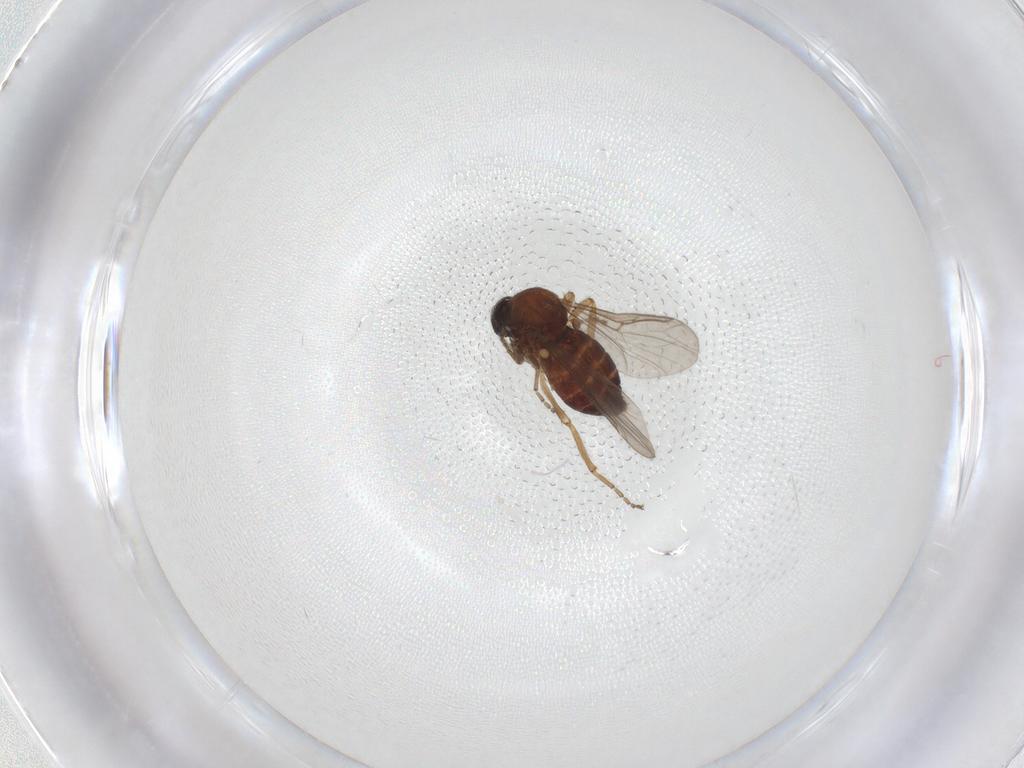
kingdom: Animalia
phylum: Arthropoda
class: Insecta
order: Diptera
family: Ceratopogonidae
